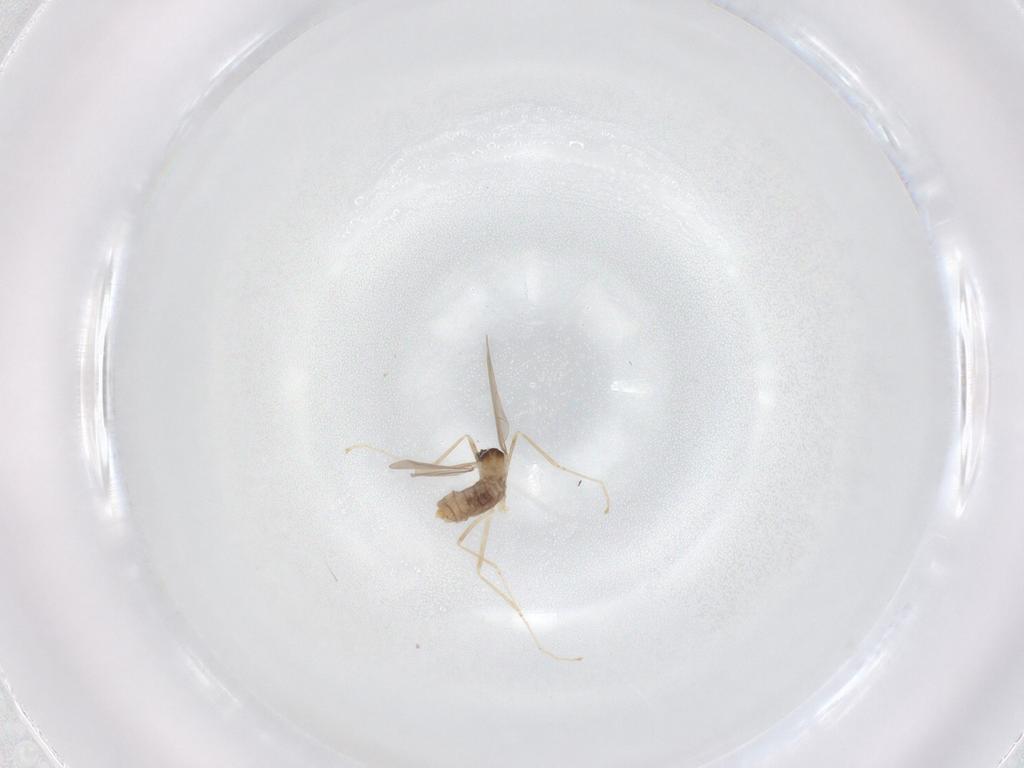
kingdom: Animalia
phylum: Arthropoda
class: Insecta
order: Diptera
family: Cecidomyiidae
